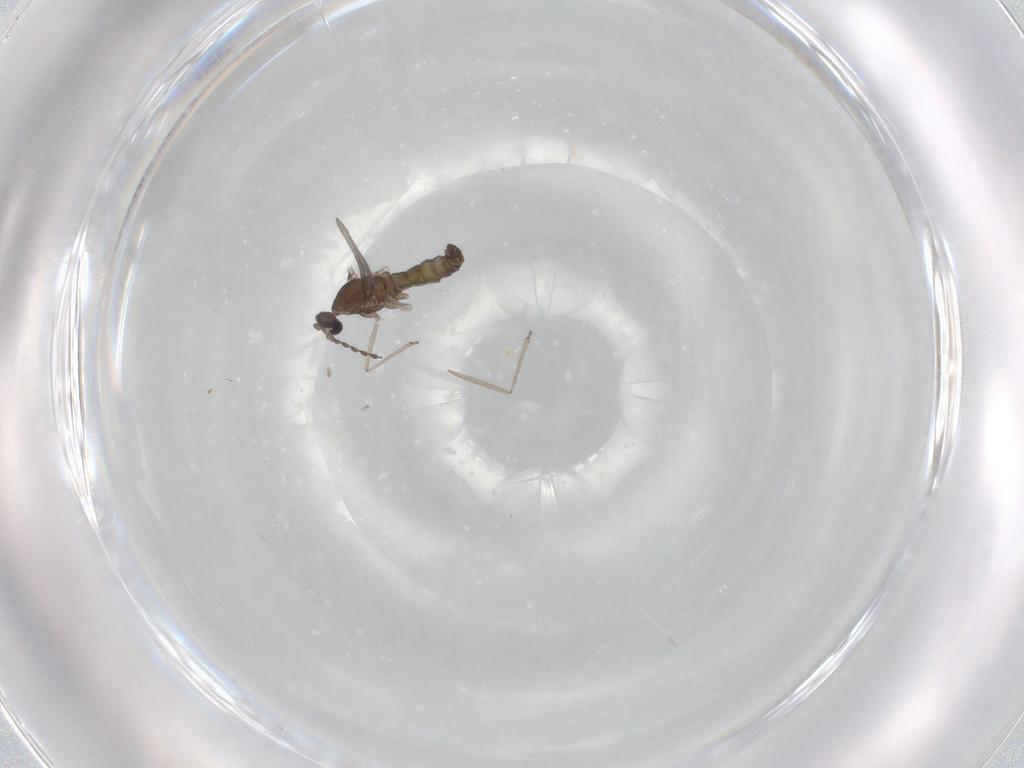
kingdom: Animalia
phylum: Arthropoda
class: Insecta
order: Diptera
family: Cecidomyiidae
